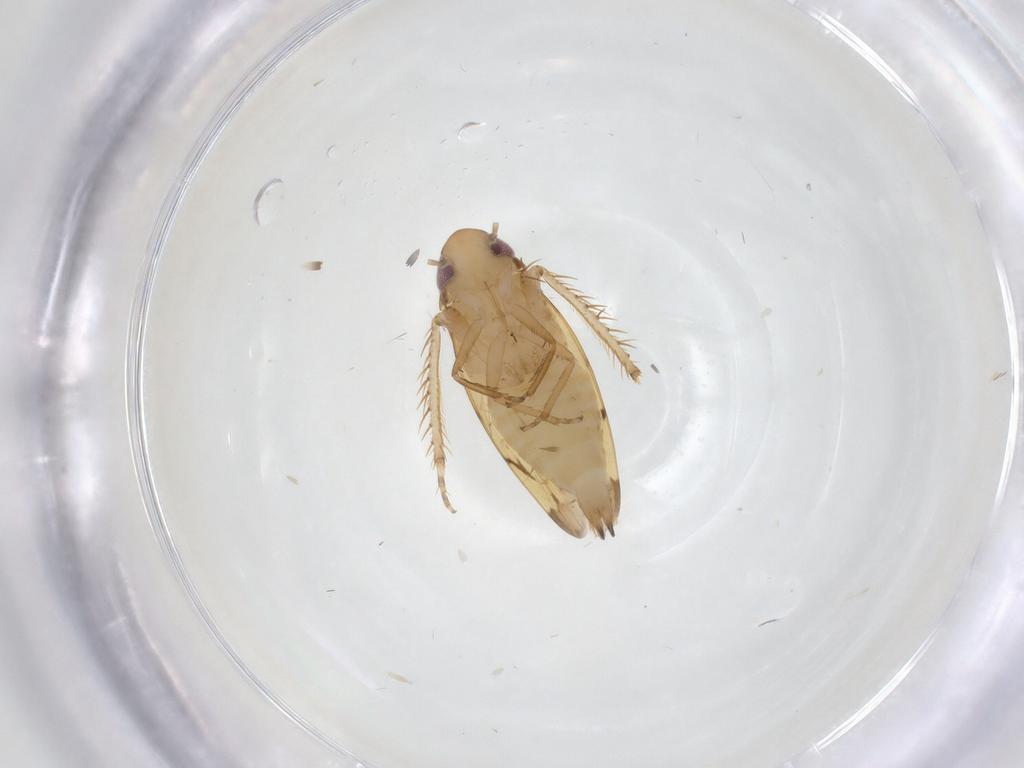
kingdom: Animalia
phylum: Arthropoda
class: Insecta
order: Hemiptera
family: Cicadellidae
